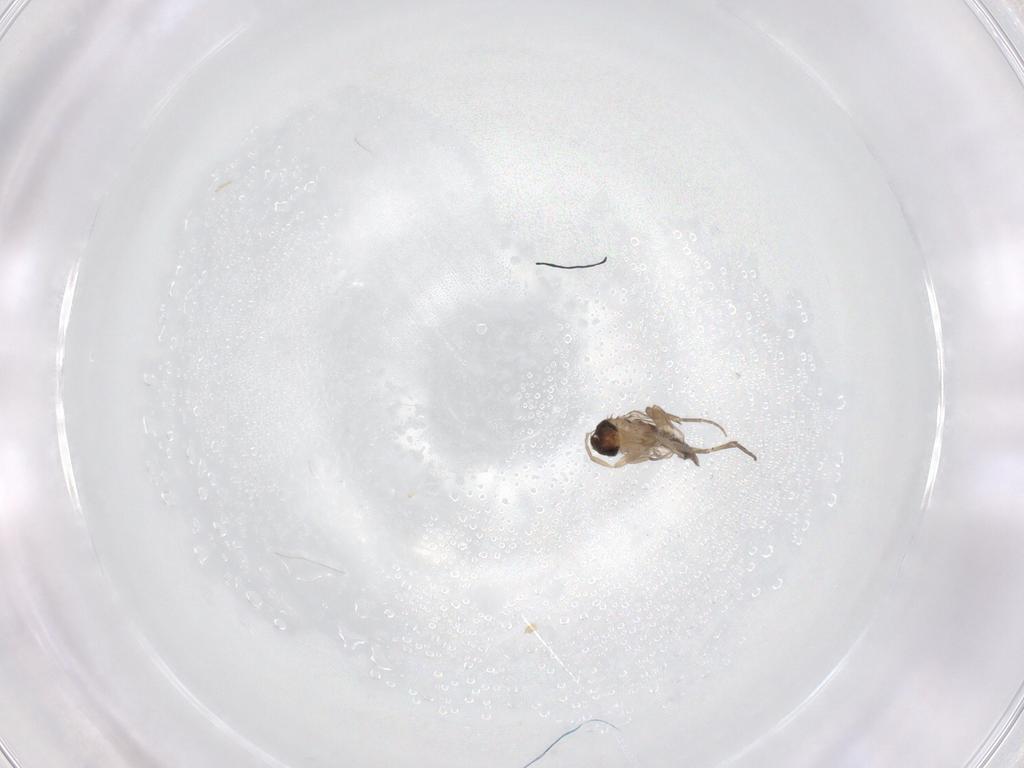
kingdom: Animalia
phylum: Arthropoda
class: Insecta
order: Diptera
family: Phoridae
